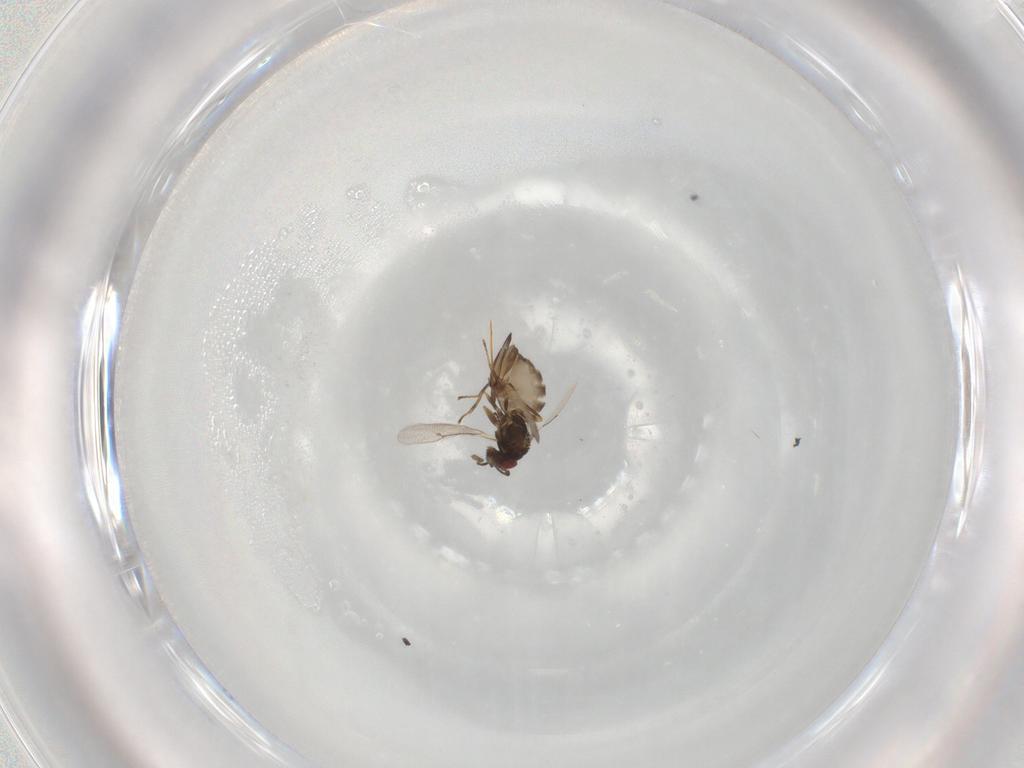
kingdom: Animalia
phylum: Arthropoda
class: Insecta
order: Hymenoptera
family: Eulophidae
